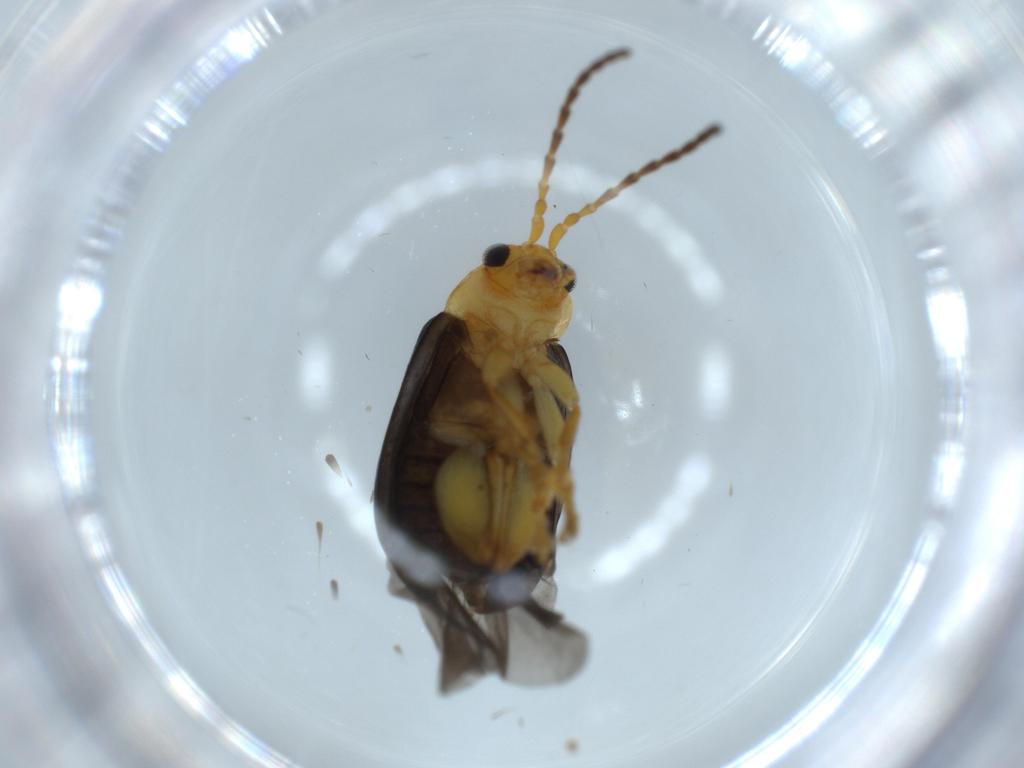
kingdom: Animalia
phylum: Arthropoda
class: Insecta
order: Coleoptera
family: Chrysomelidae
